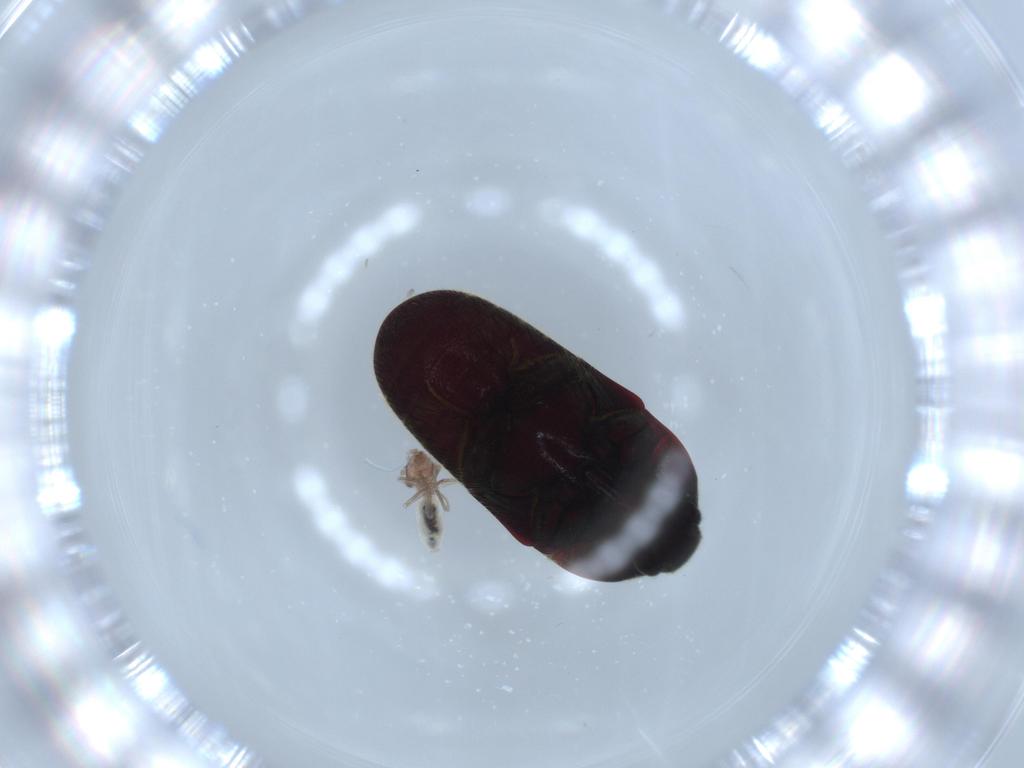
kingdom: Animalia
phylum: Arthropoda
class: Insecta
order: Psocodea
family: Lepidopsocidae
